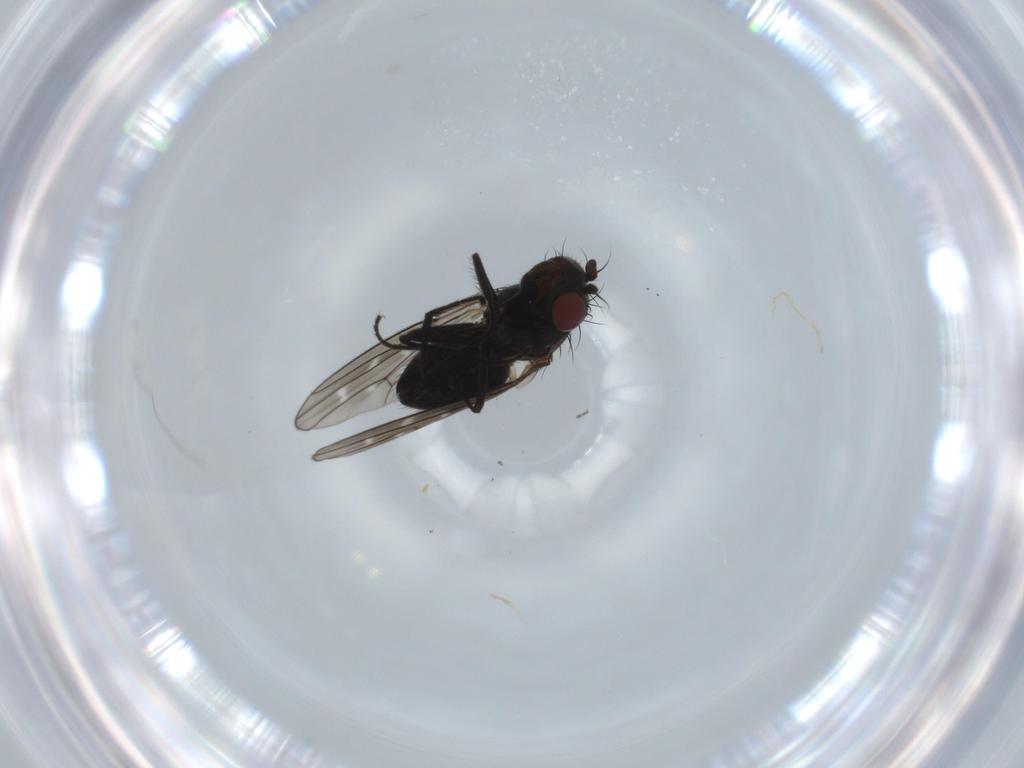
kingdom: Animalia
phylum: Arthropoda
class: Insecta
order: Diptera
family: Ephydridae
